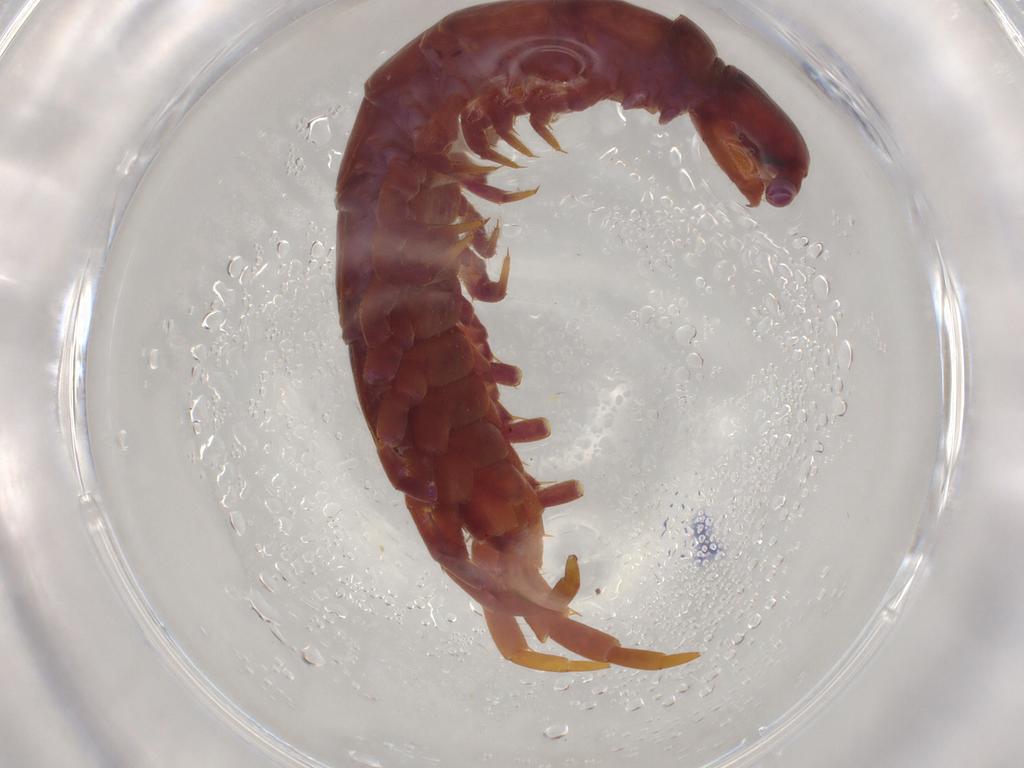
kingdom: Animalia
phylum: Arthropoda
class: Chilopoda
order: Lithobiomorpha
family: Lithobiidae
